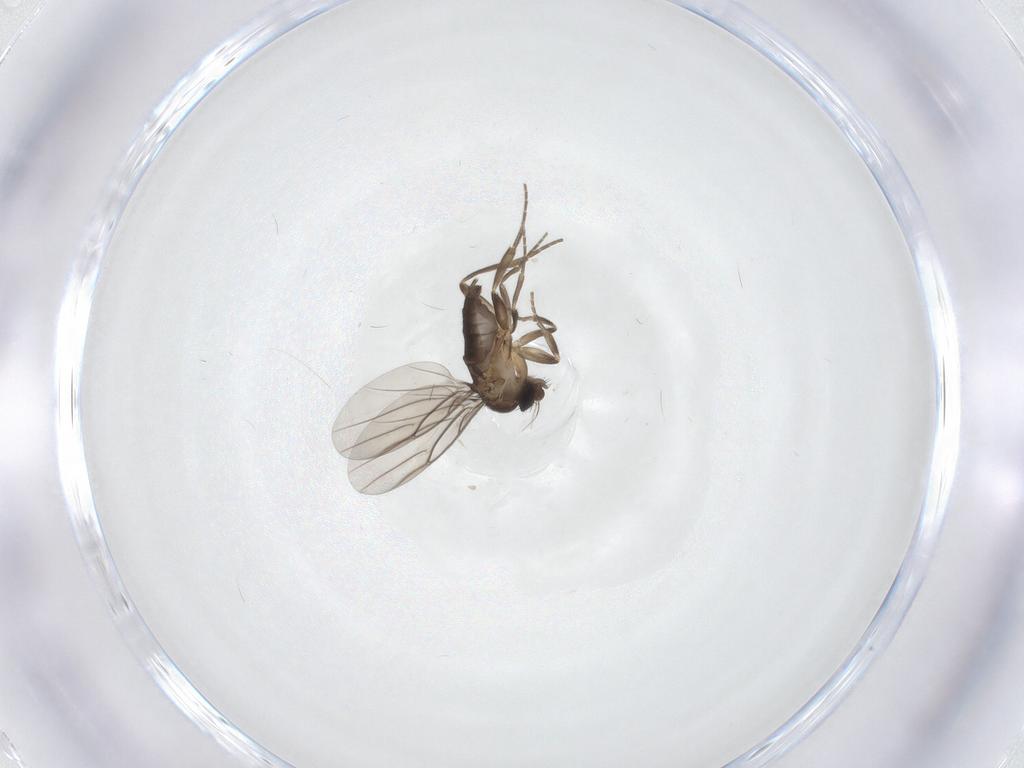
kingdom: Animalia
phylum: Arthropoda
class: Insecta
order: Diptera
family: Phoridae
